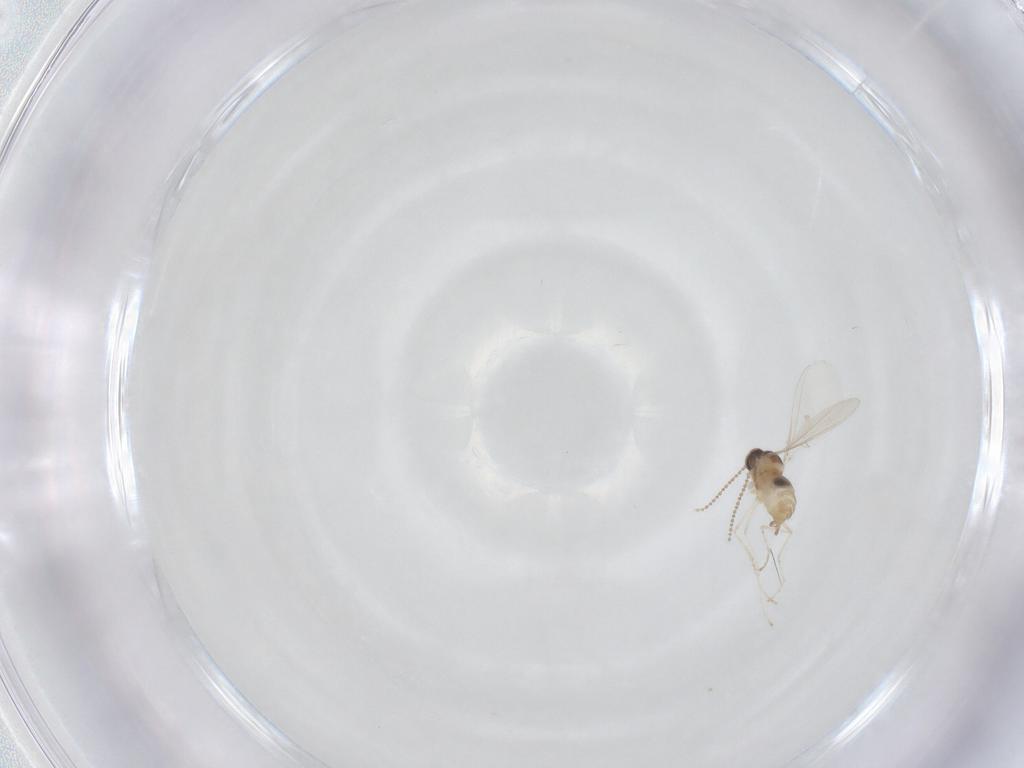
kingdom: Animalia
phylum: Arthropoda
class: Insecta
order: Diptera
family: Cecidomyiidae
